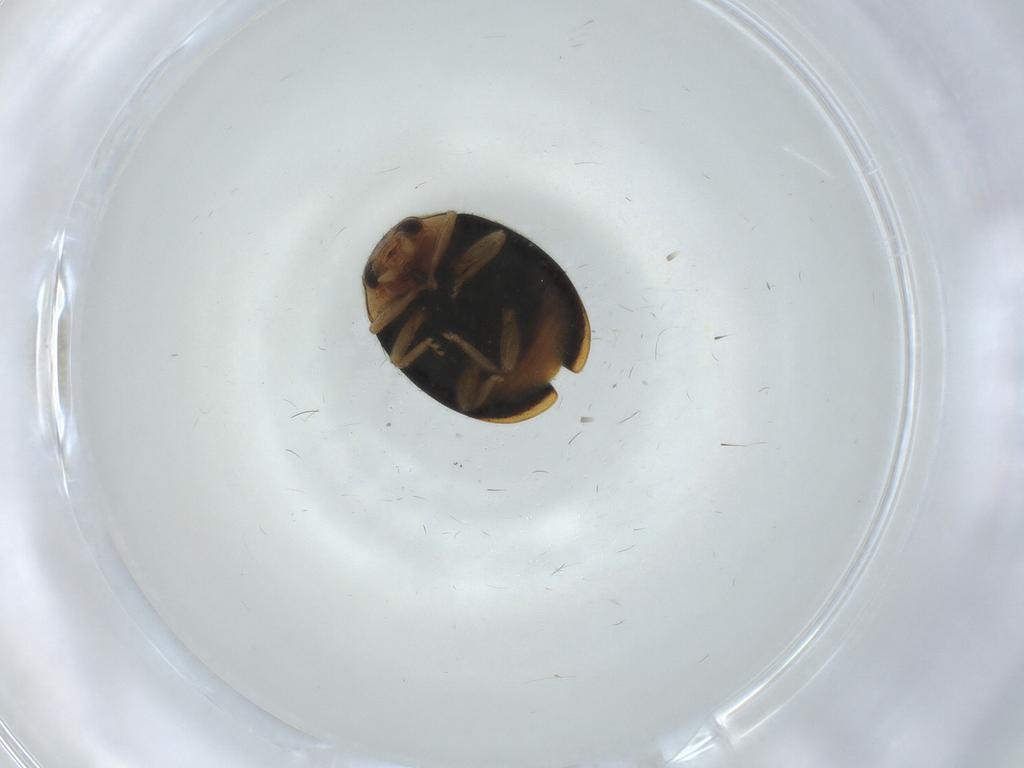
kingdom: Animalia
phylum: Arthropoda
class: Insecta
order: Coleoptera
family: Coccinellidae
